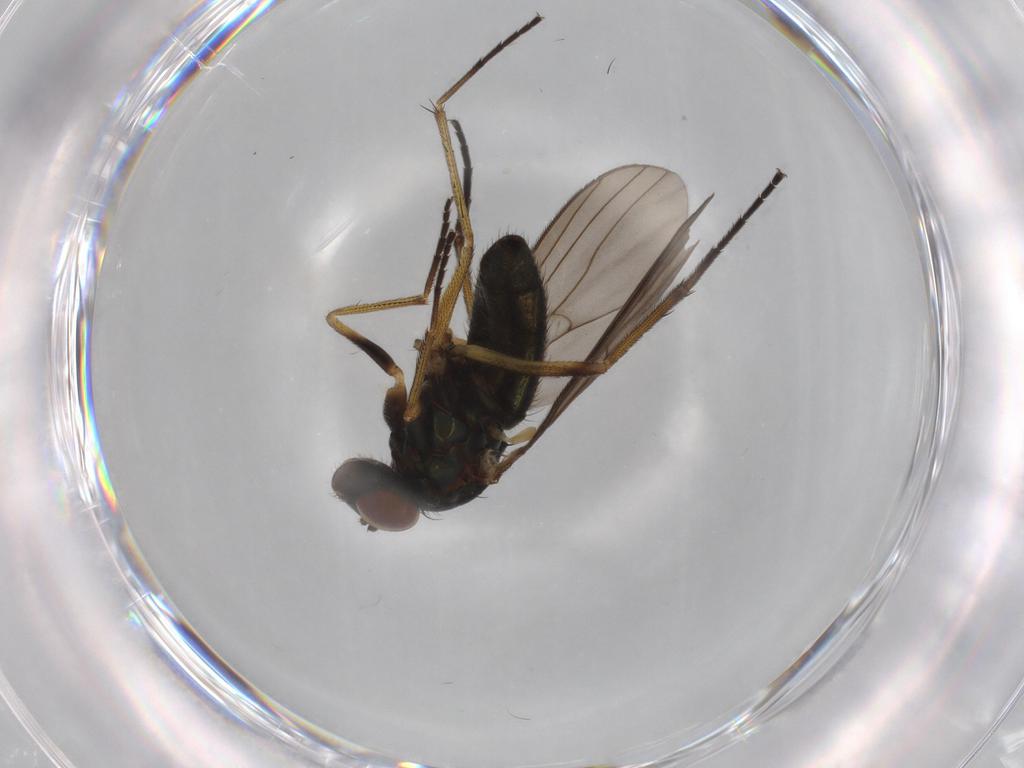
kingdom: Animalia
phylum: Arthropoda
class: Insecta
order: Diptera
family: Dolichopodidae
